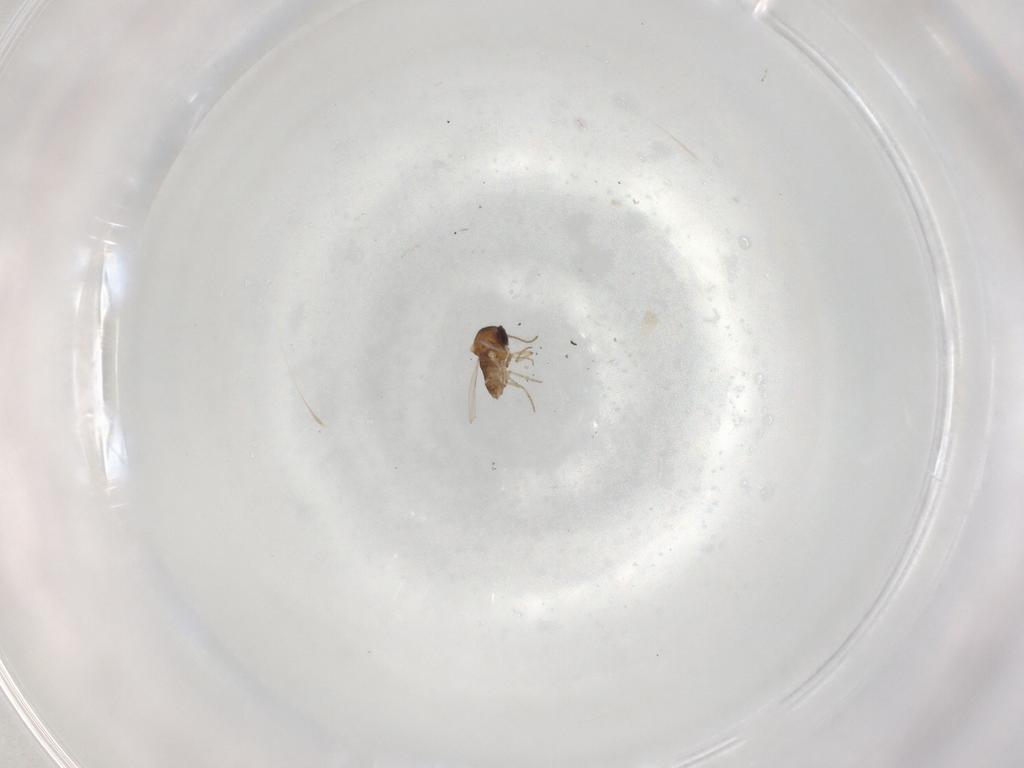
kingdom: Animalia
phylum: Arthropoda
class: Insecta
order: Diptera
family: Ceratopogonidae
